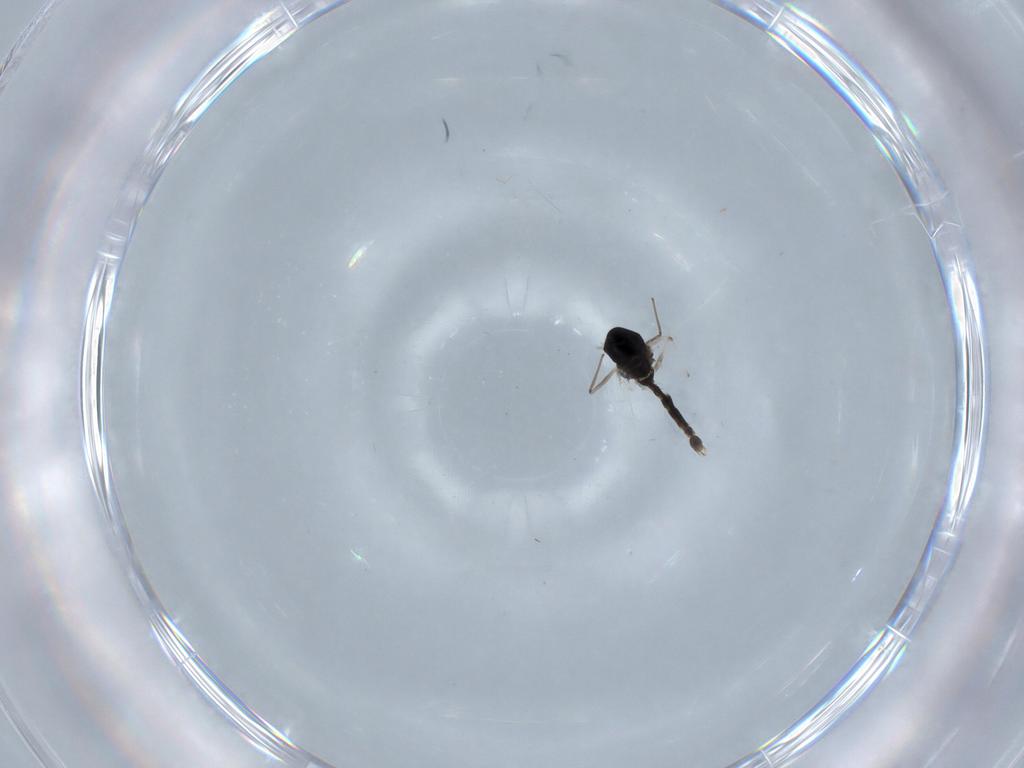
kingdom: Animalia
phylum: Arthropoda
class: Insecta
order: Diptera
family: Chironomidae
